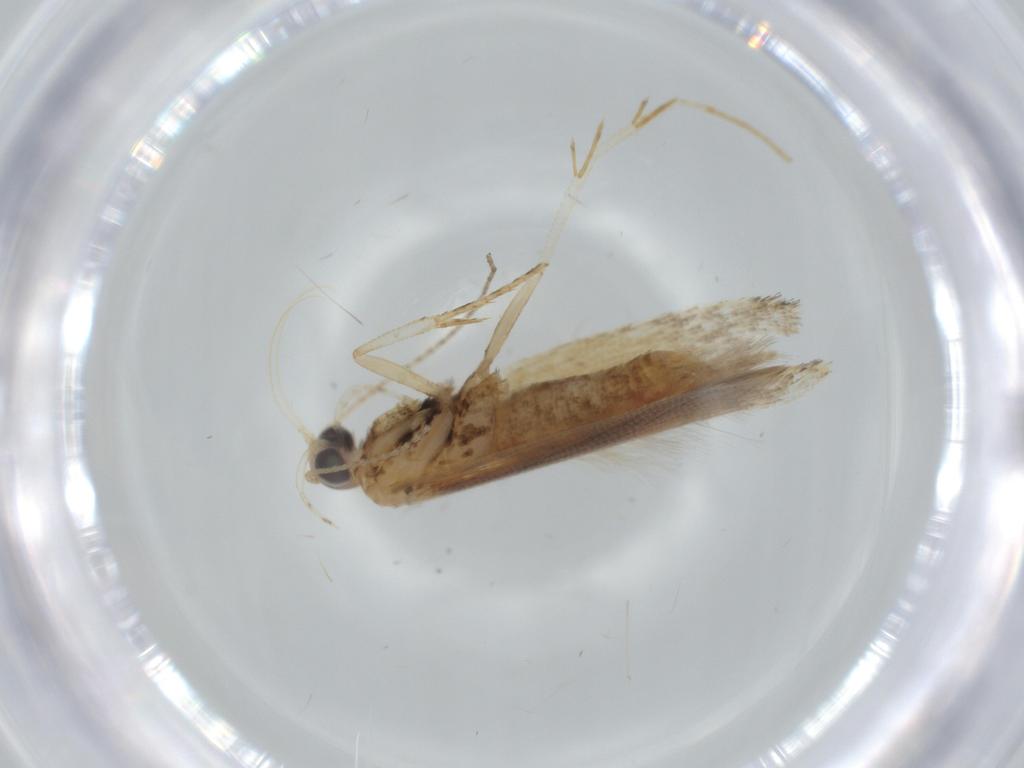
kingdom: Animalia
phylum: Arthropoda
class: Insecta
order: Lepidoptera
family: Gelechiidae
